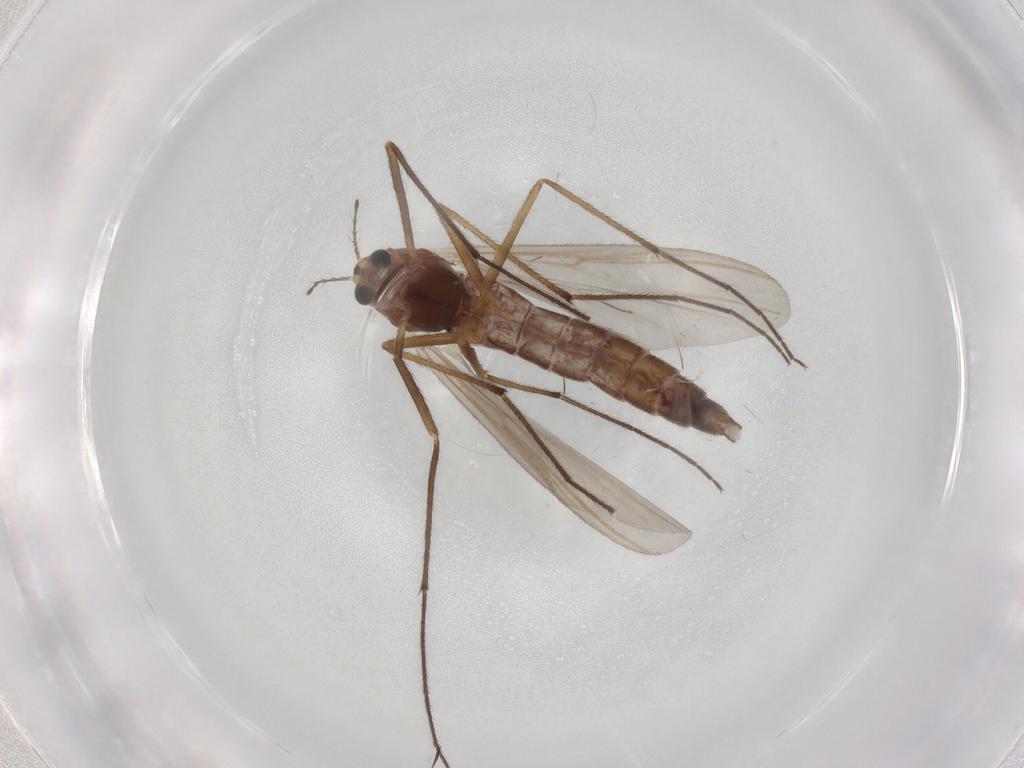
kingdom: Animalia
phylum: Arthropoda
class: Insecta
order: Diptera
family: Chironomidae
